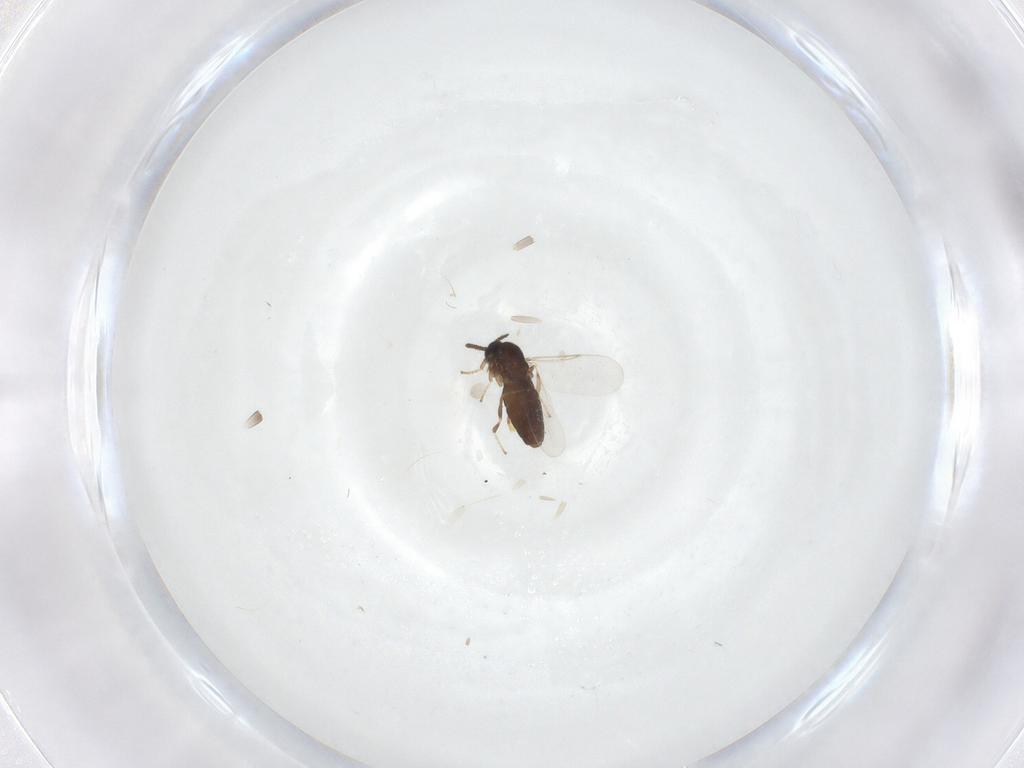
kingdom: Animalia
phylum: Arthropoda
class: Insecta
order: Diptera
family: Scatopsidae
